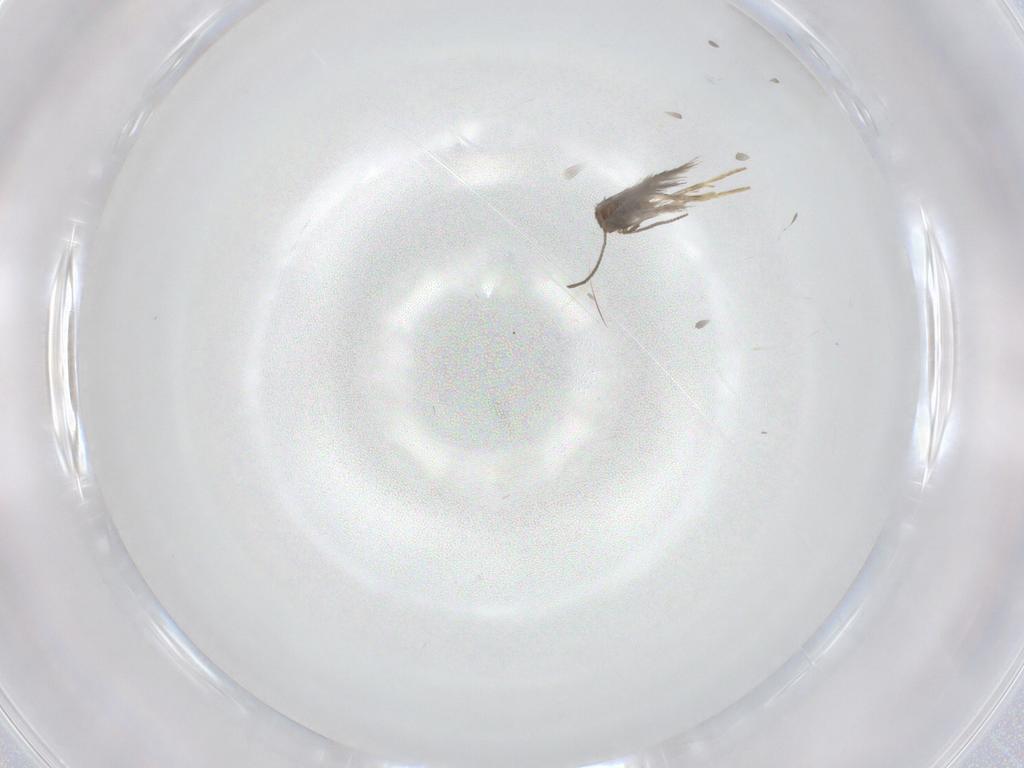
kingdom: Animalia
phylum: Arthropoda
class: Insecta
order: Lepidoptera
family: Nepticulidae
